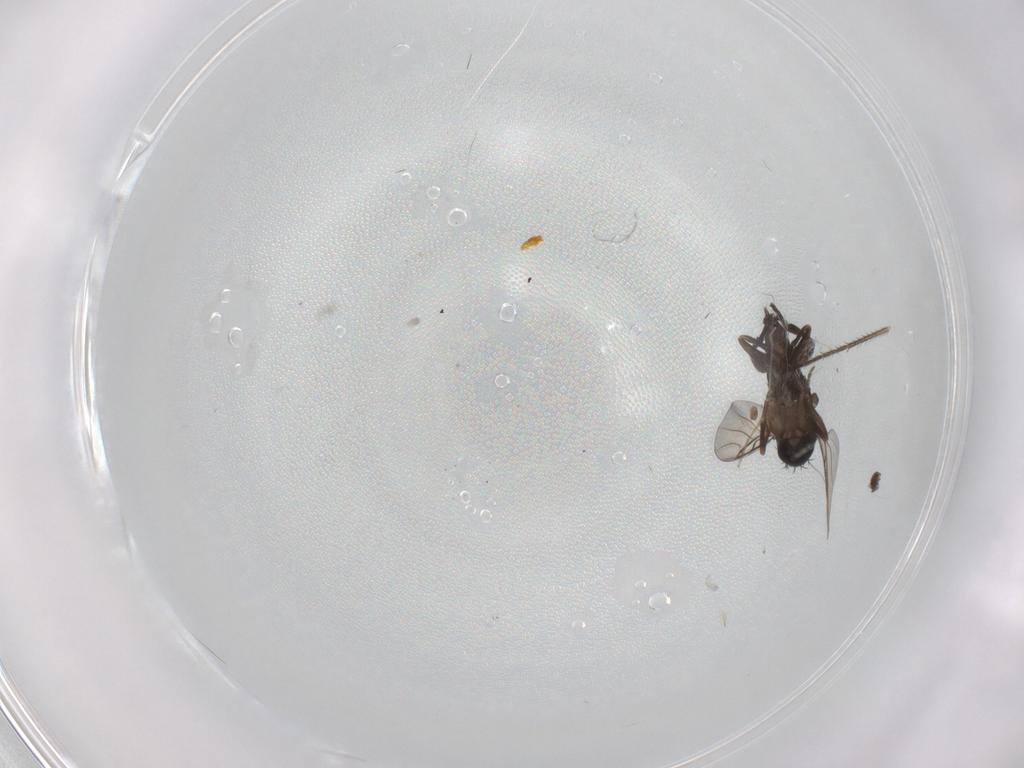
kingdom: Animalia
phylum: Arthropoda
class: Insecta
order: Diptera
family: Phoridae
